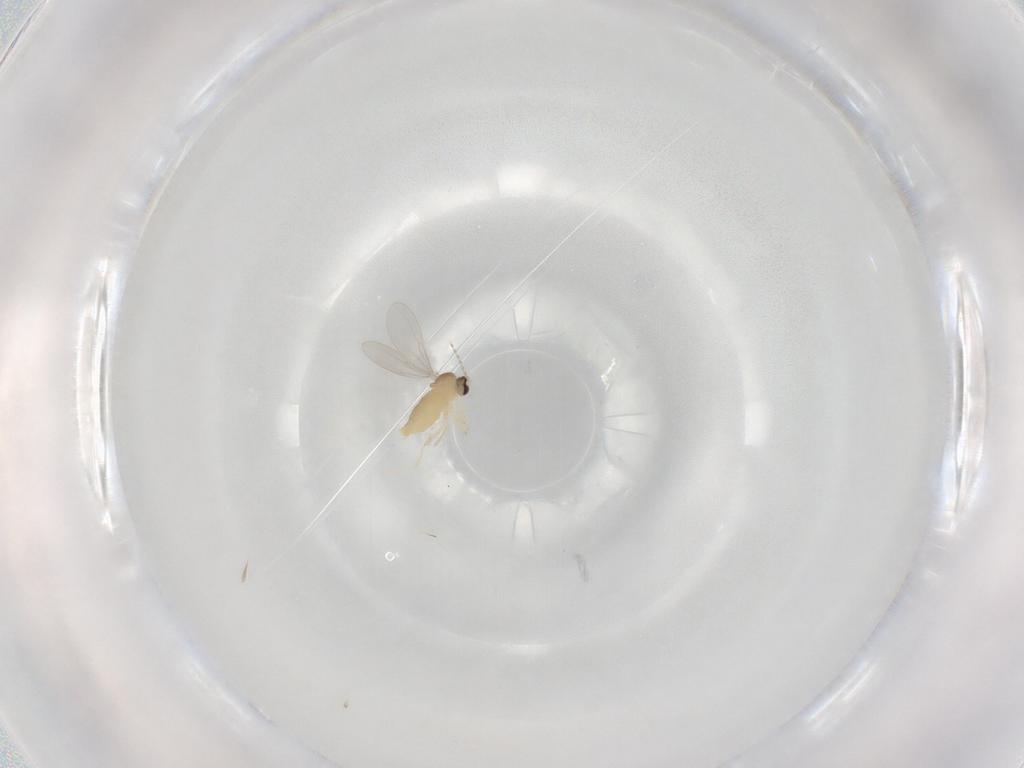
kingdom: Animalia
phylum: Arthropoda
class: Insecta
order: Diptera
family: Cecidomyiidae
